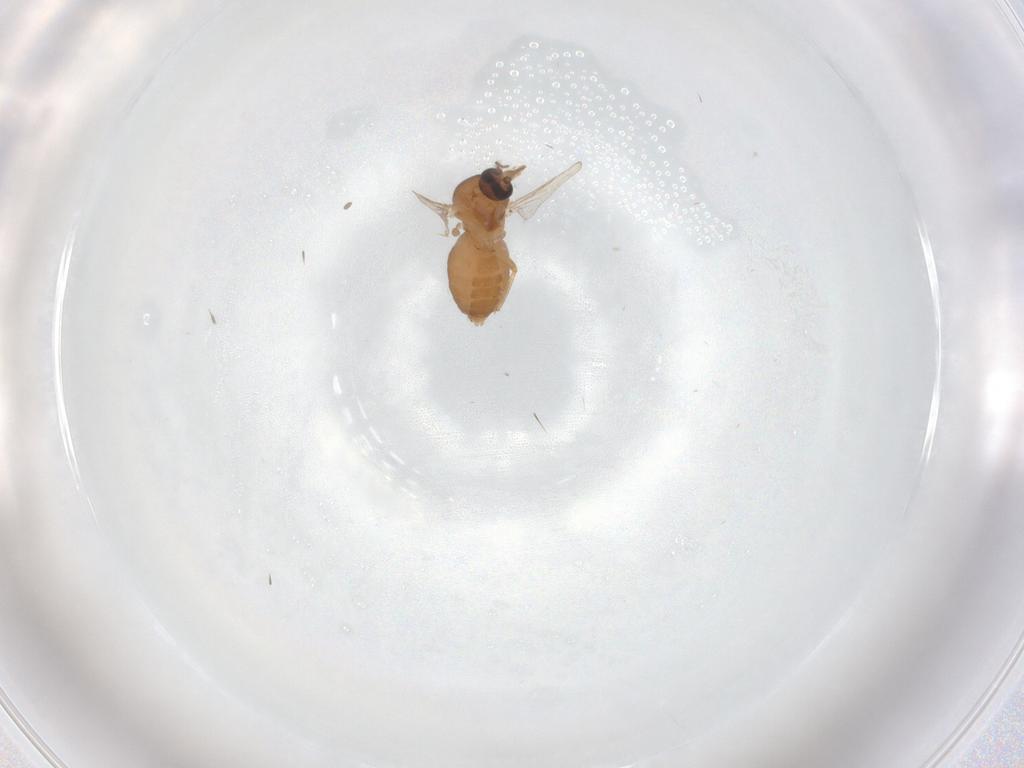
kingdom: Animalia
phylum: Arthropoda
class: Insecta
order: Diptera
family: Ceratopogonidae
